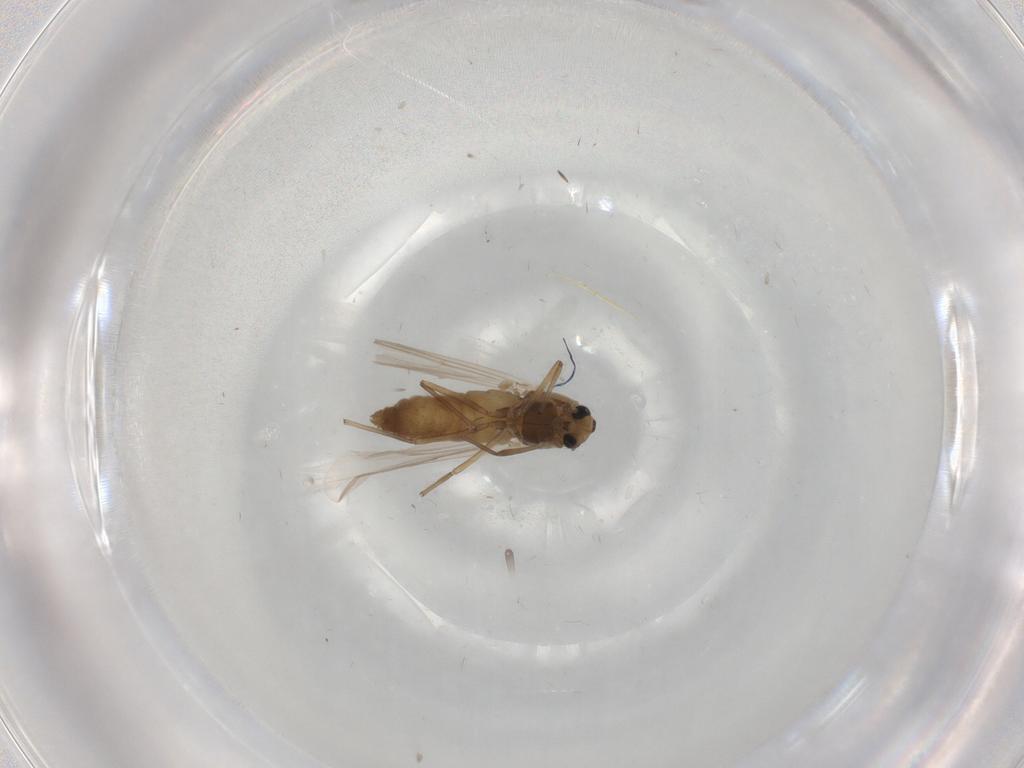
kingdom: Animalia
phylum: Arthropoda
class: Insecta
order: Diptera
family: Chironomidae
